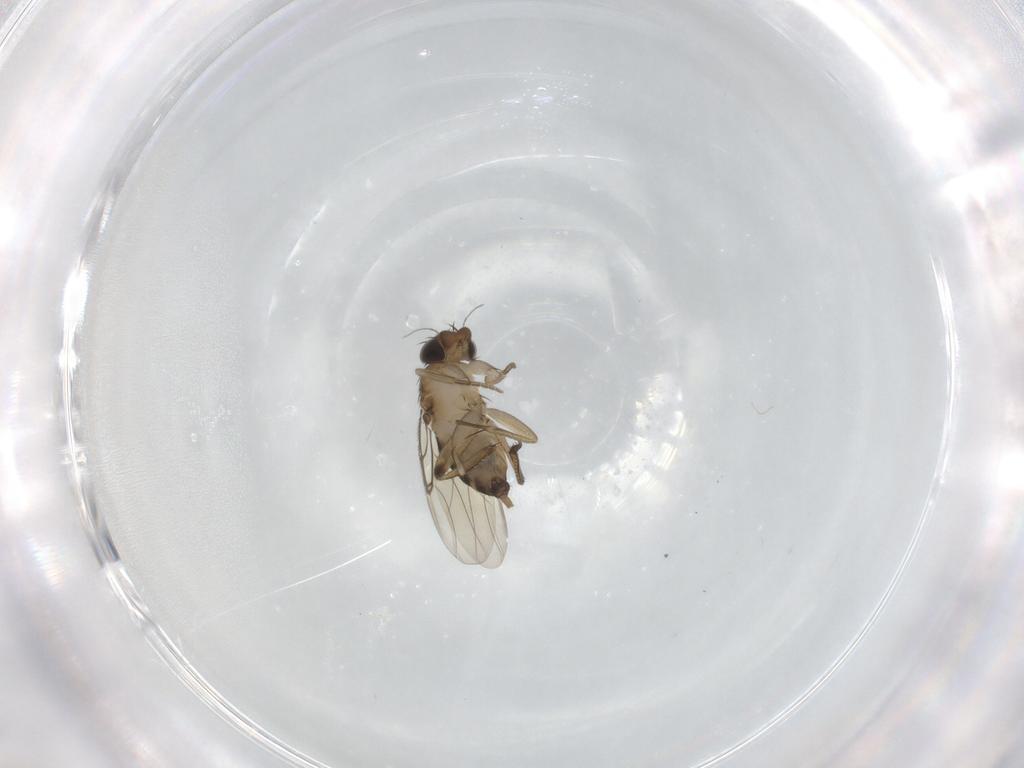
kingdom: Animalia
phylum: Arthropoda
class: Insecta
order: Diptera
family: Phoridae
